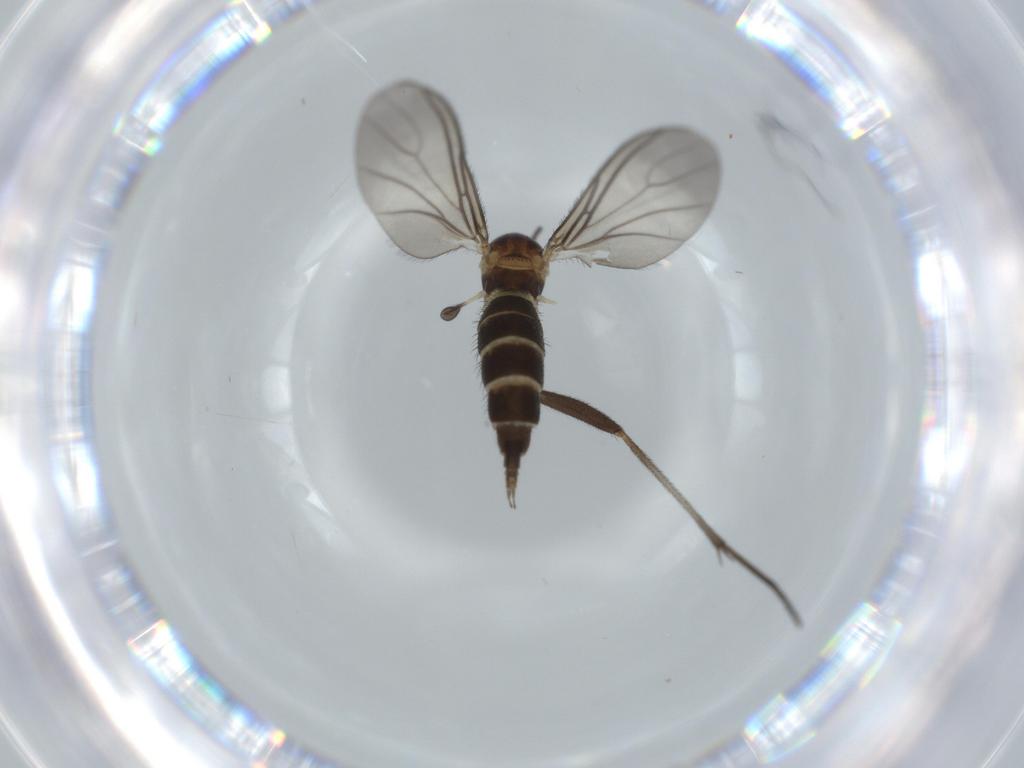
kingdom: Animalia
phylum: Arthropoda
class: Insecta
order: Diptera
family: Sciaridae
